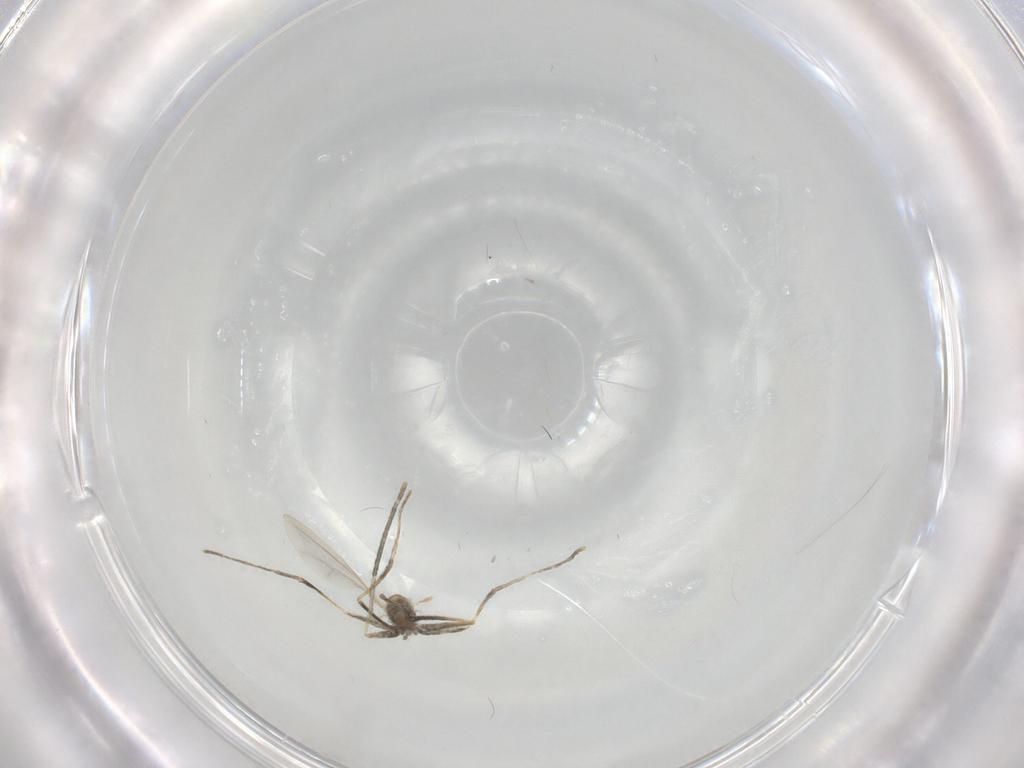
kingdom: Animalia
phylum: Arthropoda
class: Insecta
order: Diptera
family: Cecidomyiidae
